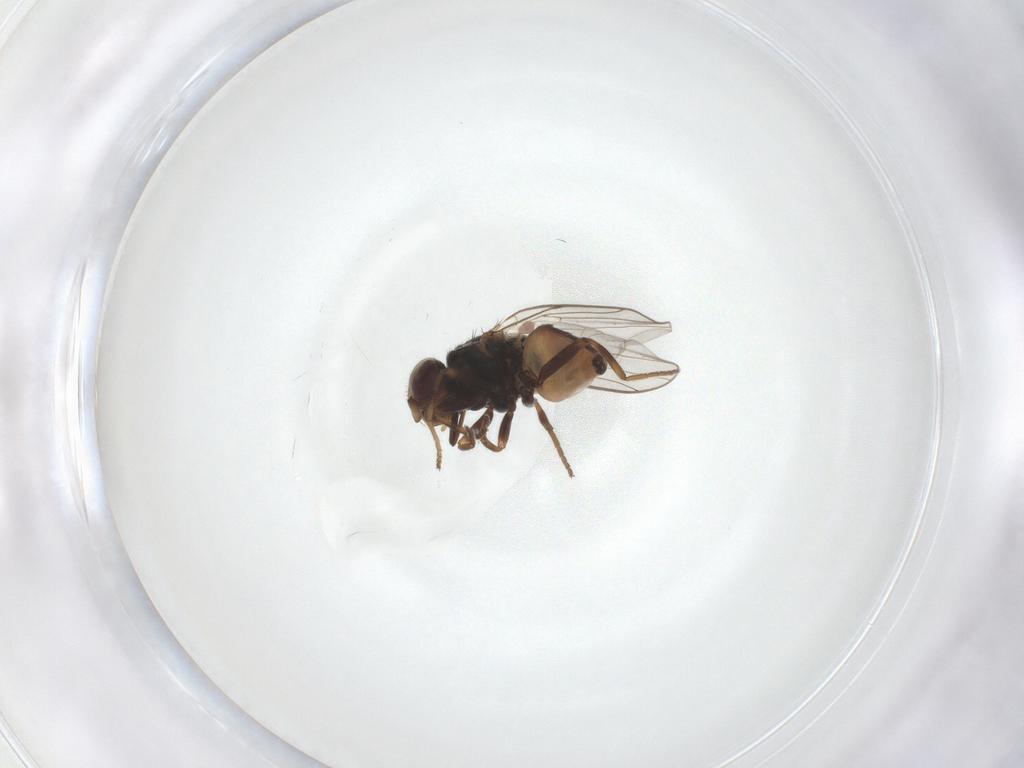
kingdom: Animalia
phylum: Arthropoda
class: Insecta
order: Diptera
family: Chloropidae
